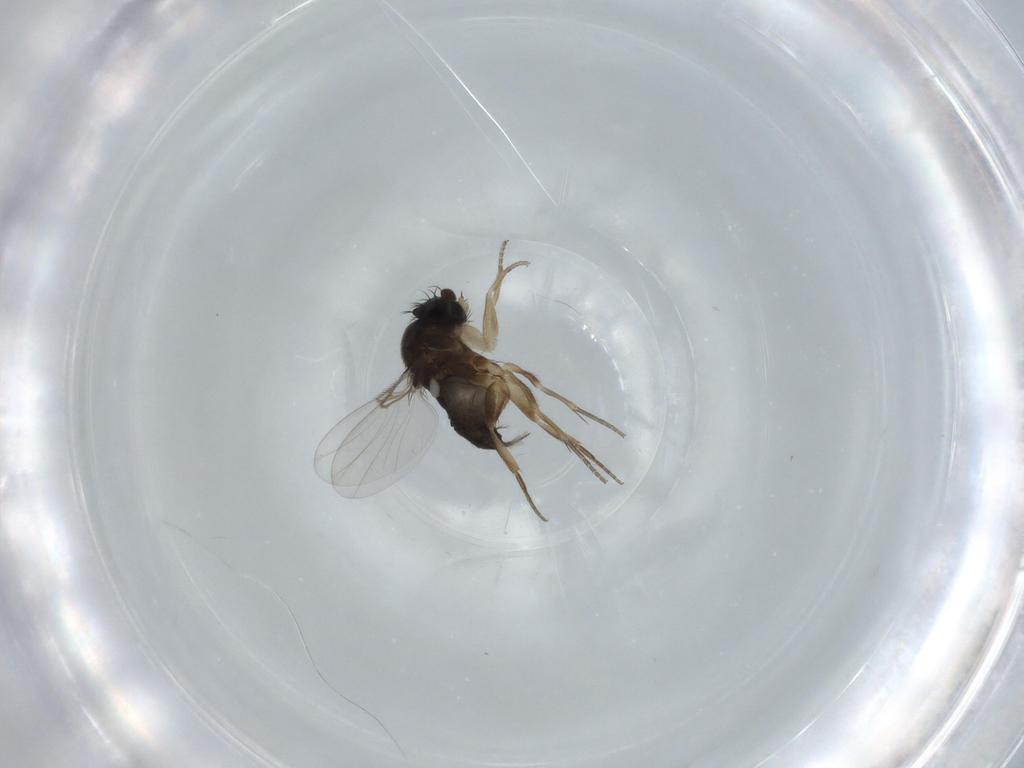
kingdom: Animalia
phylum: Arthropoda
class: Insecta
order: Diptera
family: Phoridae
